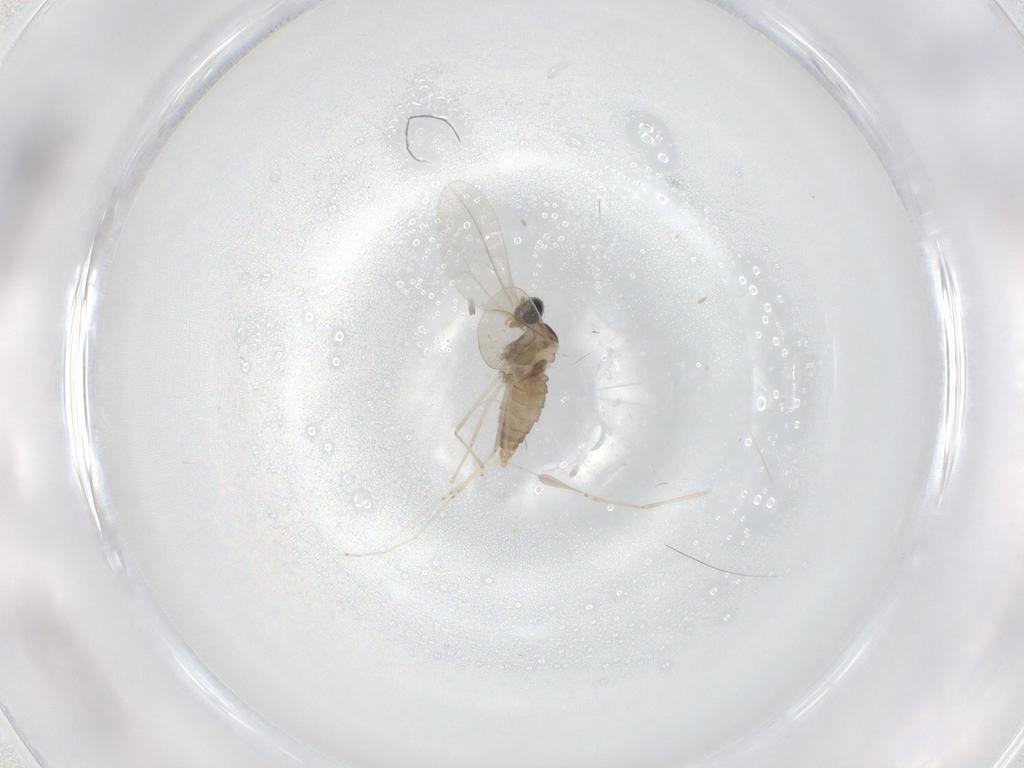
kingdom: Animalia
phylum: Arthropoda
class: Insecta
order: Diptera
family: Cecidomyiidae
